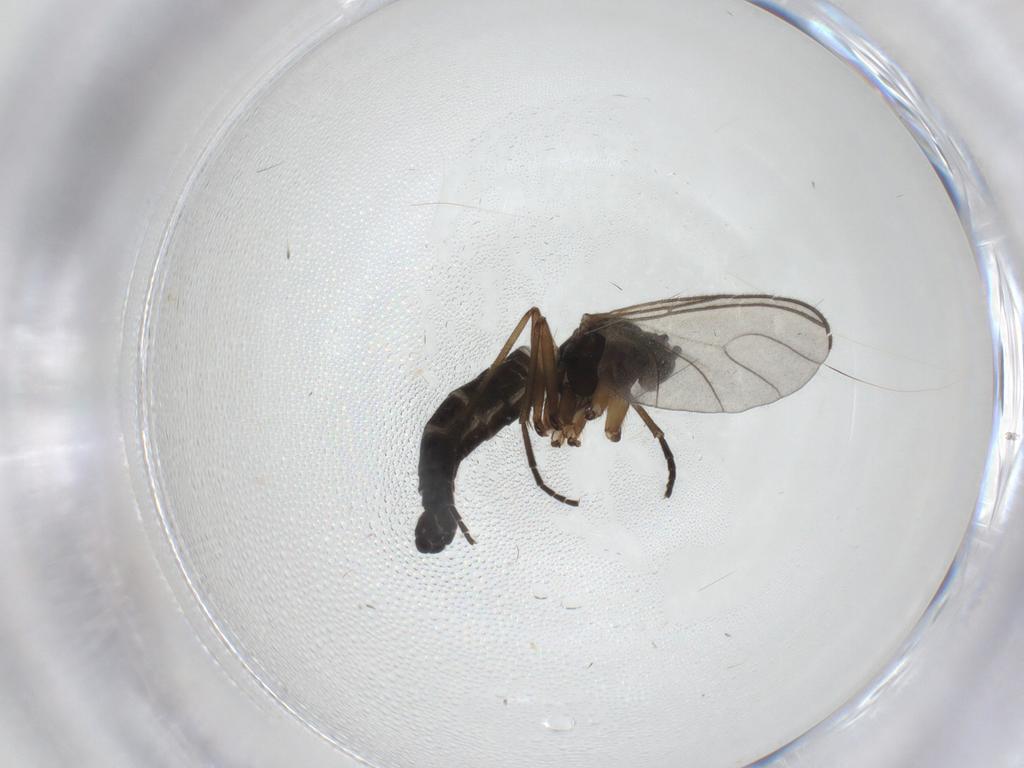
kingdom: Animalia
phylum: Arthropoda
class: Insecta
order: Diptera
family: Sciaridae
